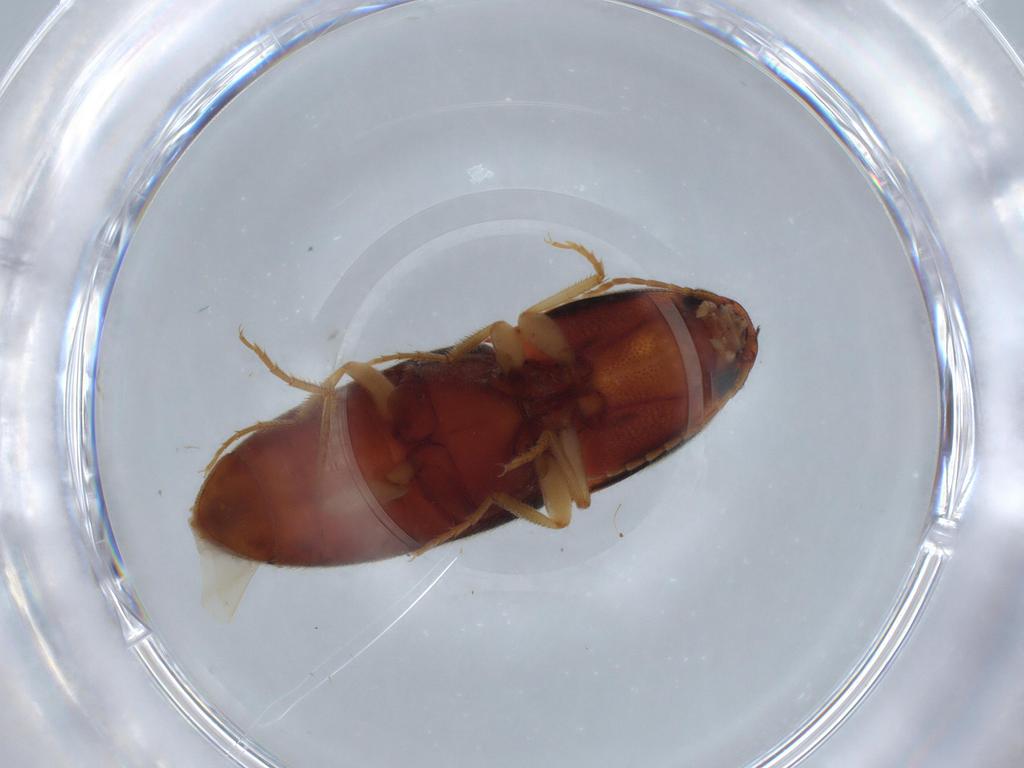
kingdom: Animalia
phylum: Arthropoda
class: Insecta
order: Coleoptera
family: Elateridae
